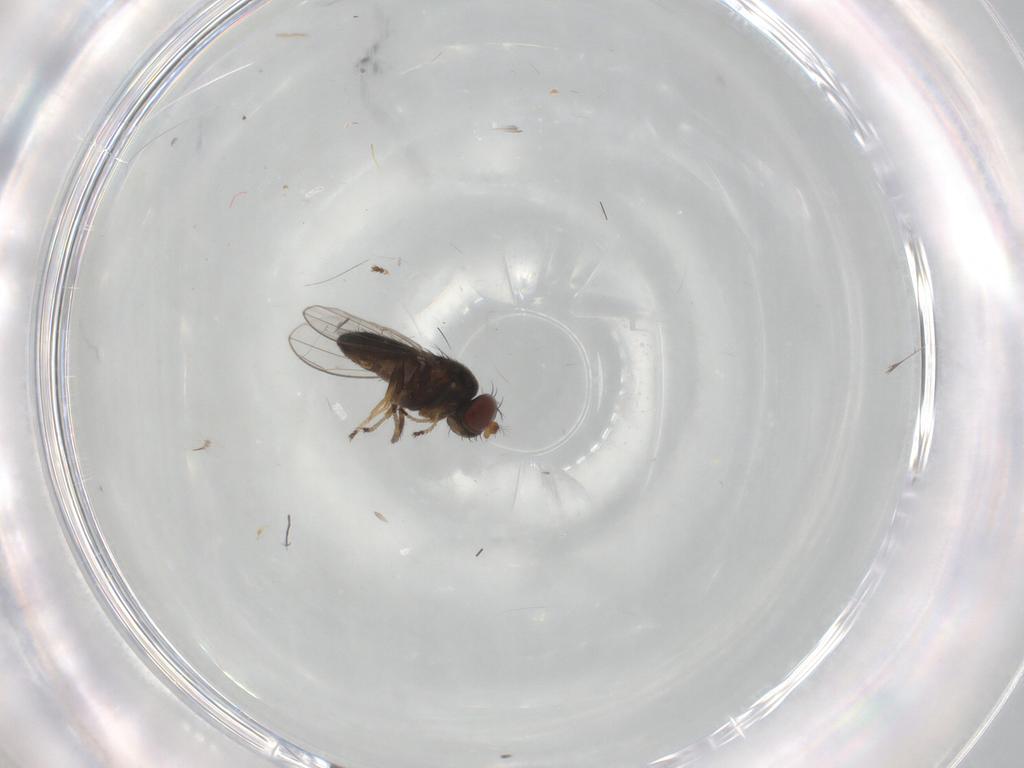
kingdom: Animalia
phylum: Arthropoda
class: Insecta
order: Diptera
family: Ephydridae
